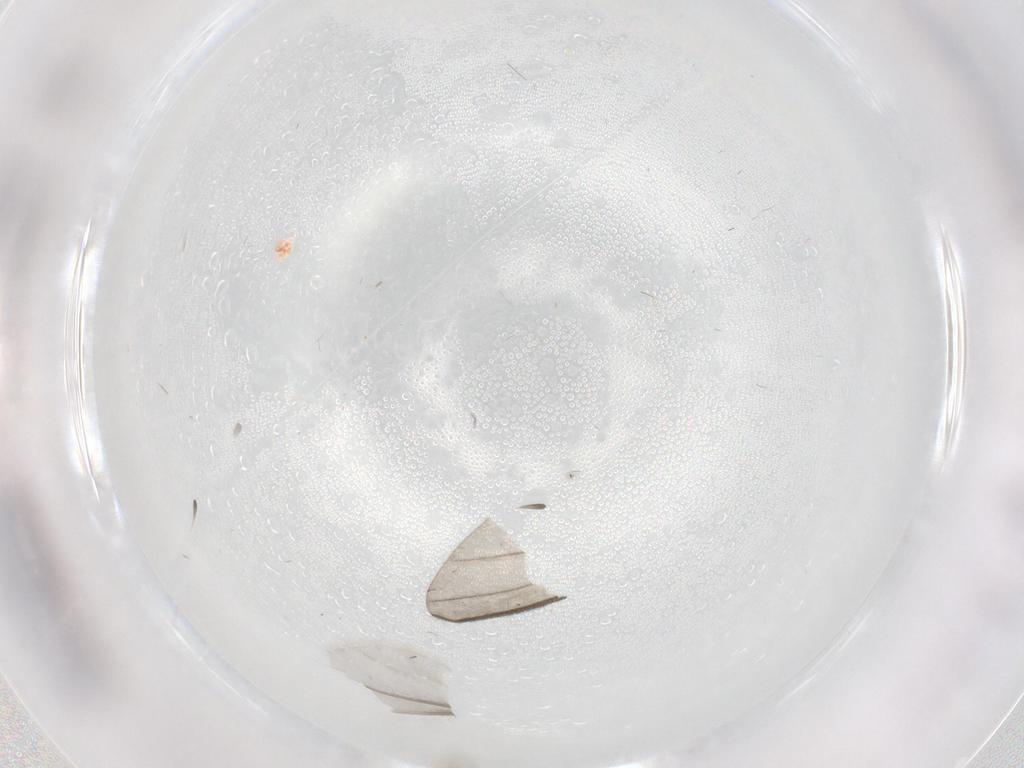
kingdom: Animalia
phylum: Arthropoda
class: Insecta
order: Diptera
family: Cecidomyiidae
